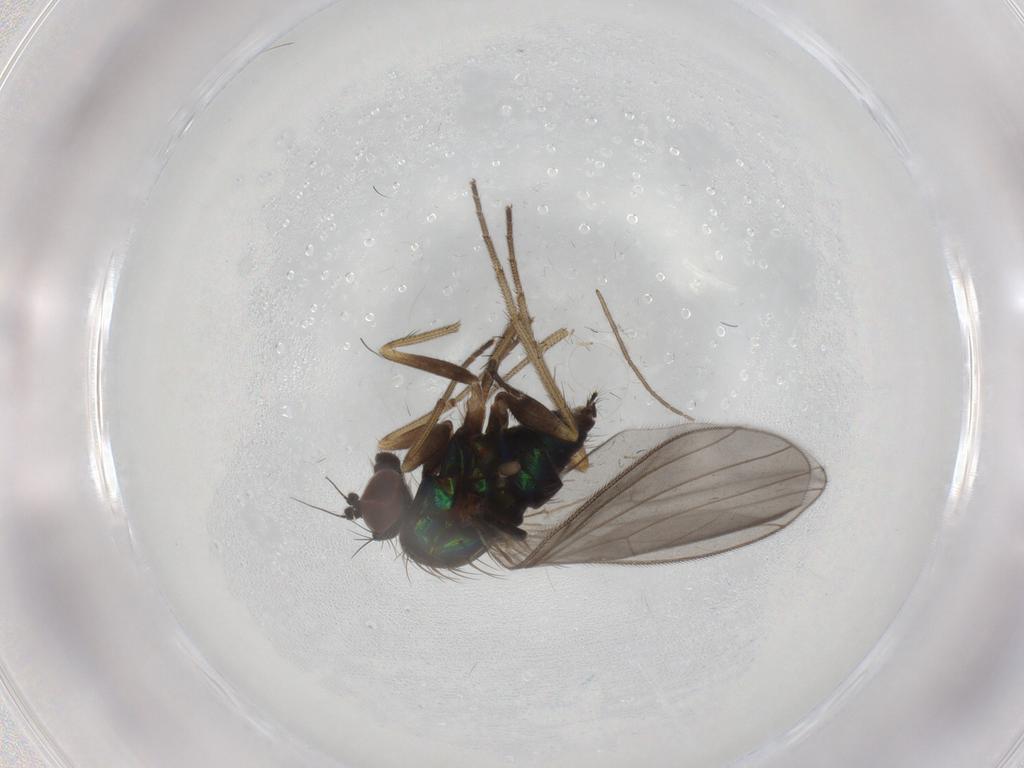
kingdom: Animalia
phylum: Arthropoda
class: Insecta
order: Diptera
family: Dolichopodidae
